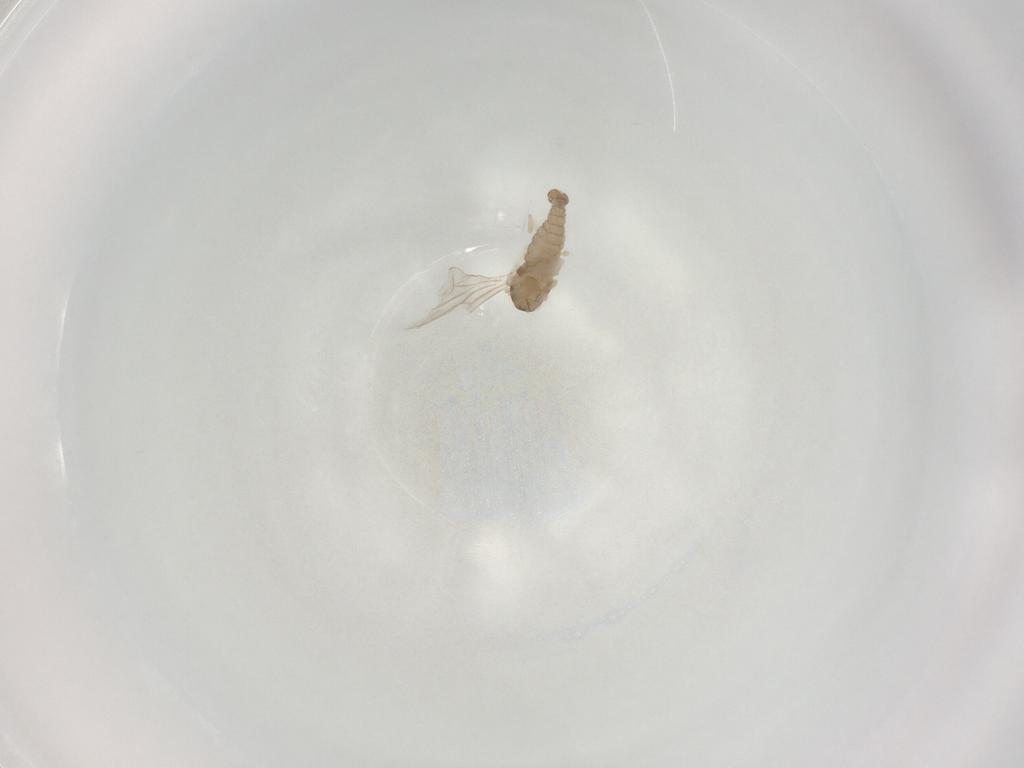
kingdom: Animalia
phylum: Arthropoda
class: Insecta
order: Diptera
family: Cecidomyiidae
